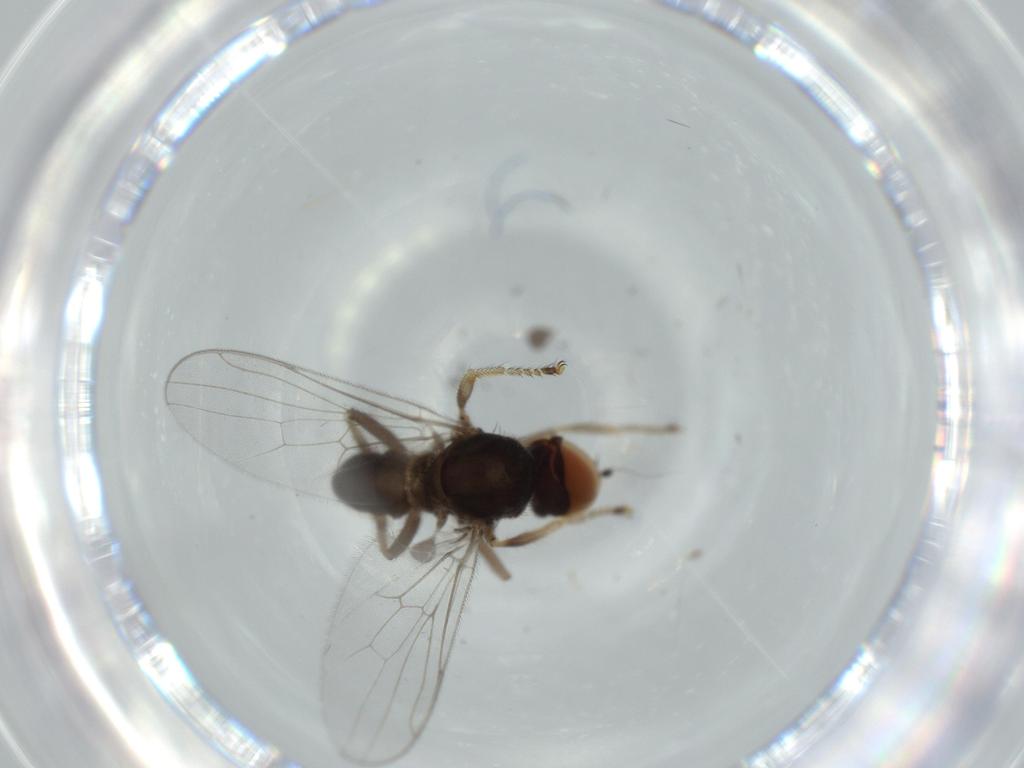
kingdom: Animalia
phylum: Arthropoda
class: Insecta
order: Diptera
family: Hybotidae
